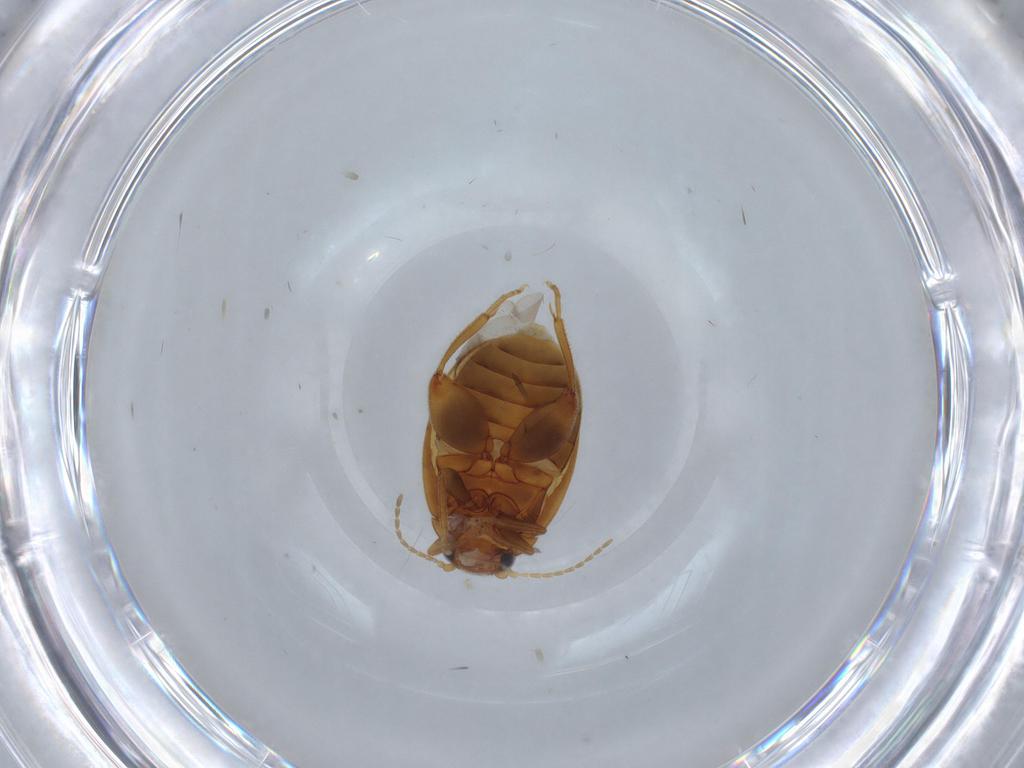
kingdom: Animalia
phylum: Arthropoda
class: Insecta
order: Coleoptera
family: Scirtidae
